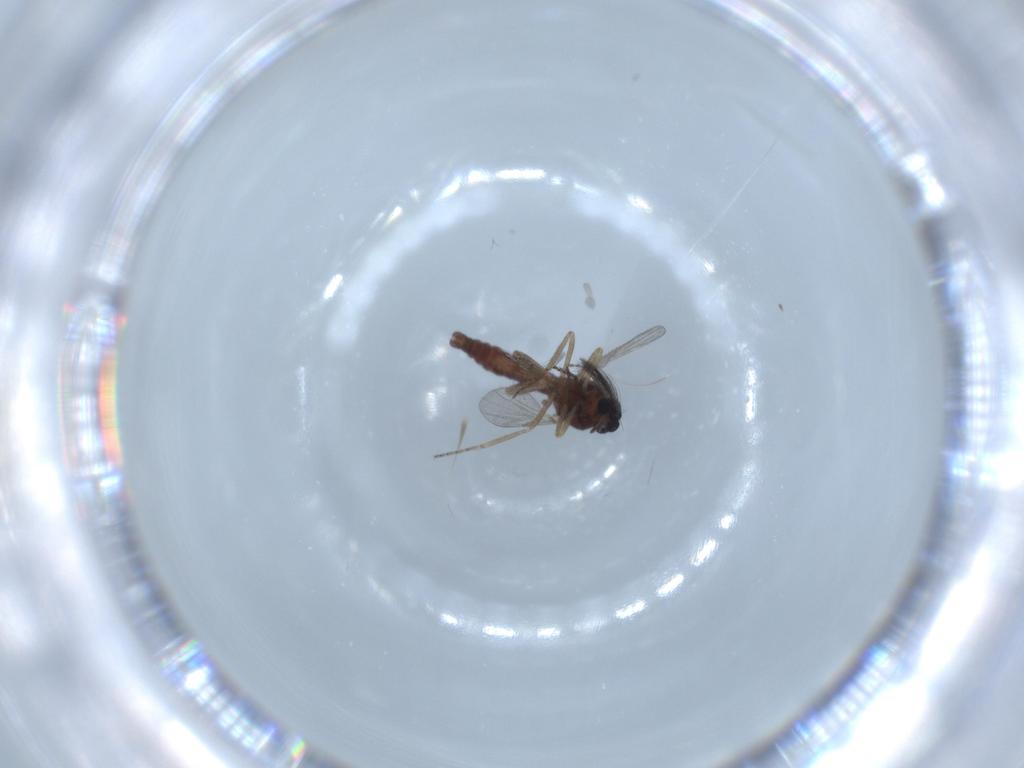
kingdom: Animalia
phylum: Arthropoda
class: Insecta
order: Diptera
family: Ceratopogonidae
